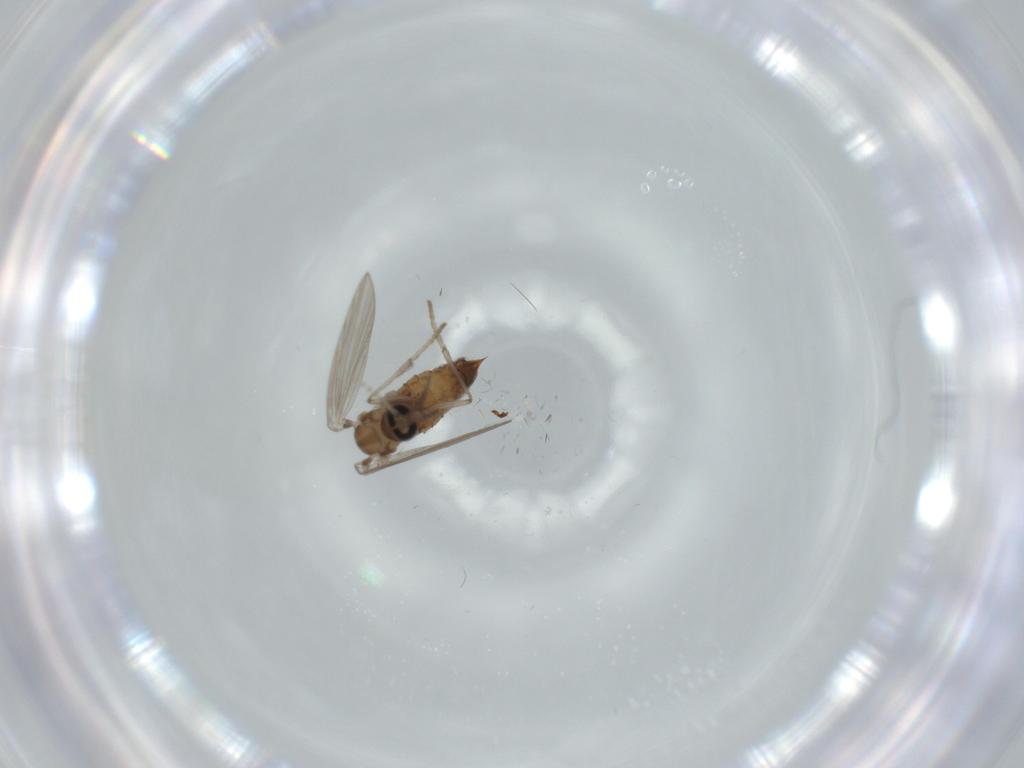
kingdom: Animalia
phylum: Arthropoda
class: Insecta
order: Diptera
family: Psychodidae
